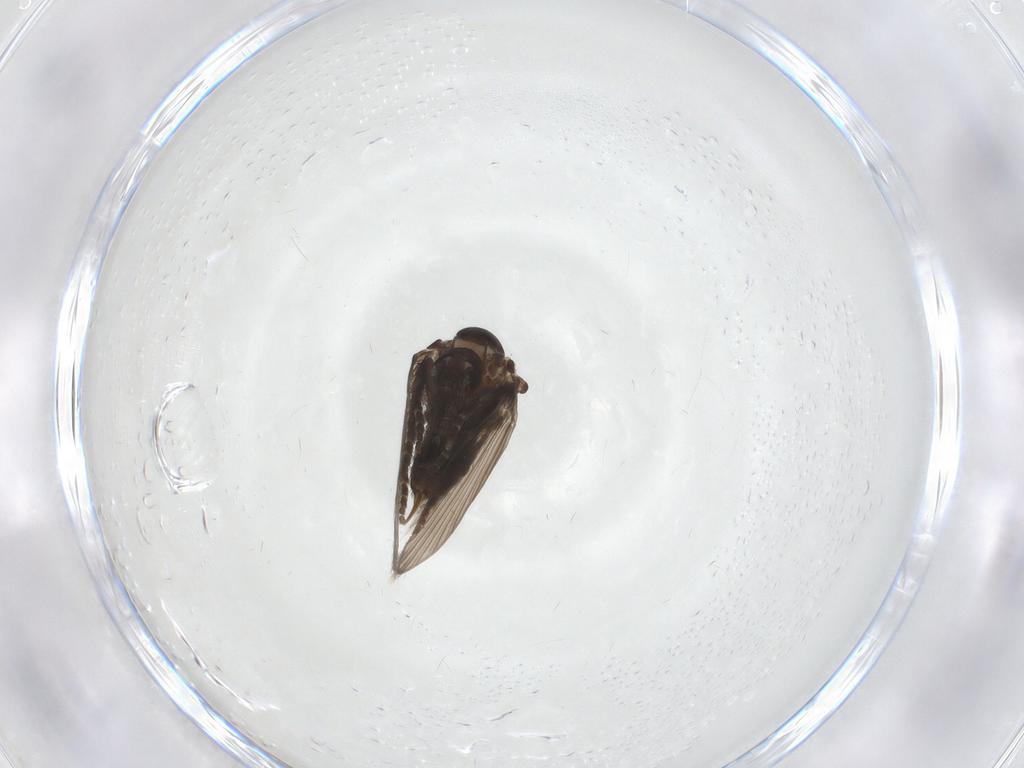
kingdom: Animalia
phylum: Arthropoda
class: Insecta
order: Diptera
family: Psychodidae
